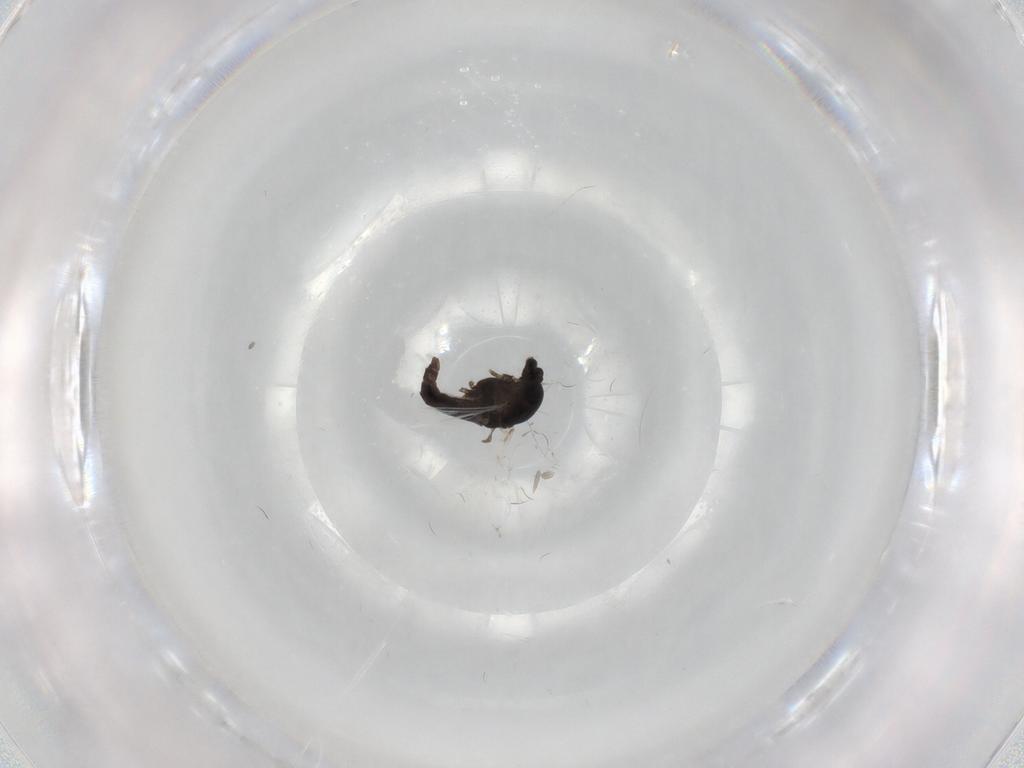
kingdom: Animalia
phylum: Arthropoda
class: Insecta
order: Diptera
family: Chironomidae
